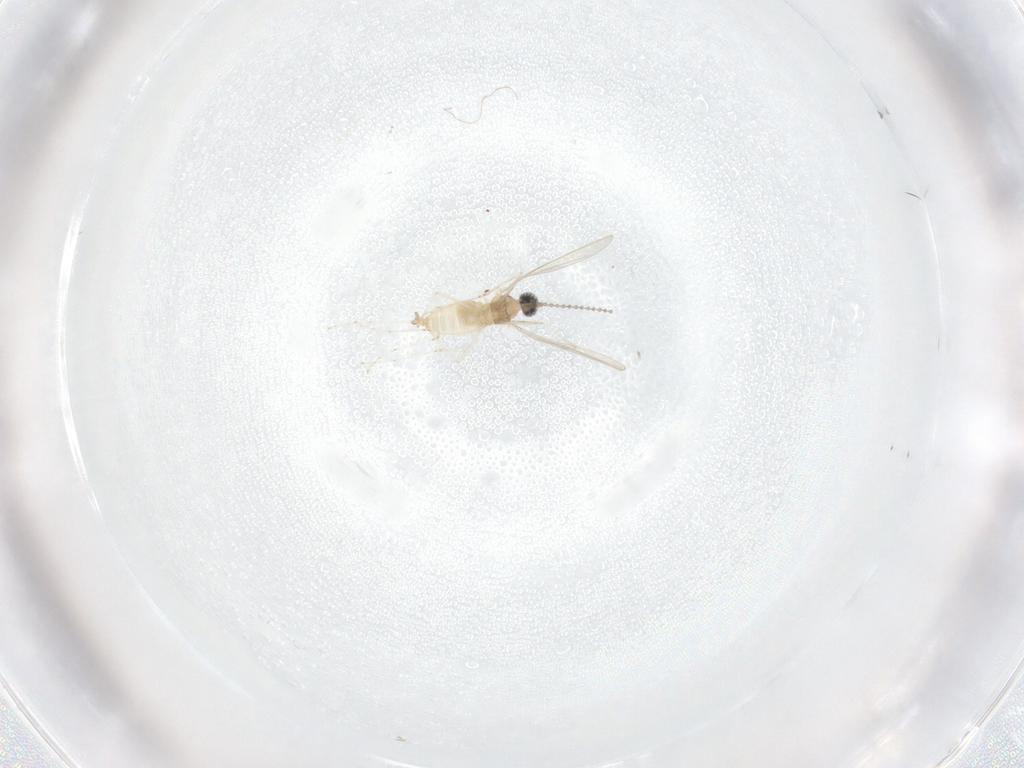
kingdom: Animalia
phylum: Arthropoda
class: Insecta
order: Diptera
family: Cecidomyiidae
